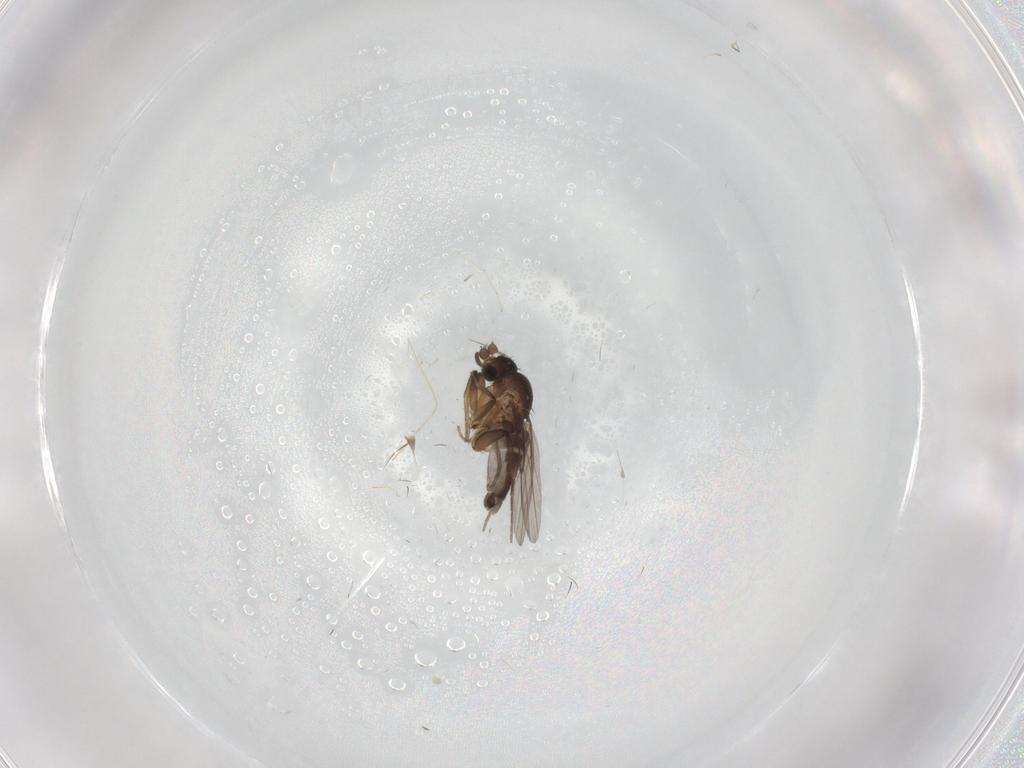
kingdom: Animalia
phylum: Arthropoda
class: Insecta
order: Diptera
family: Phoridae
